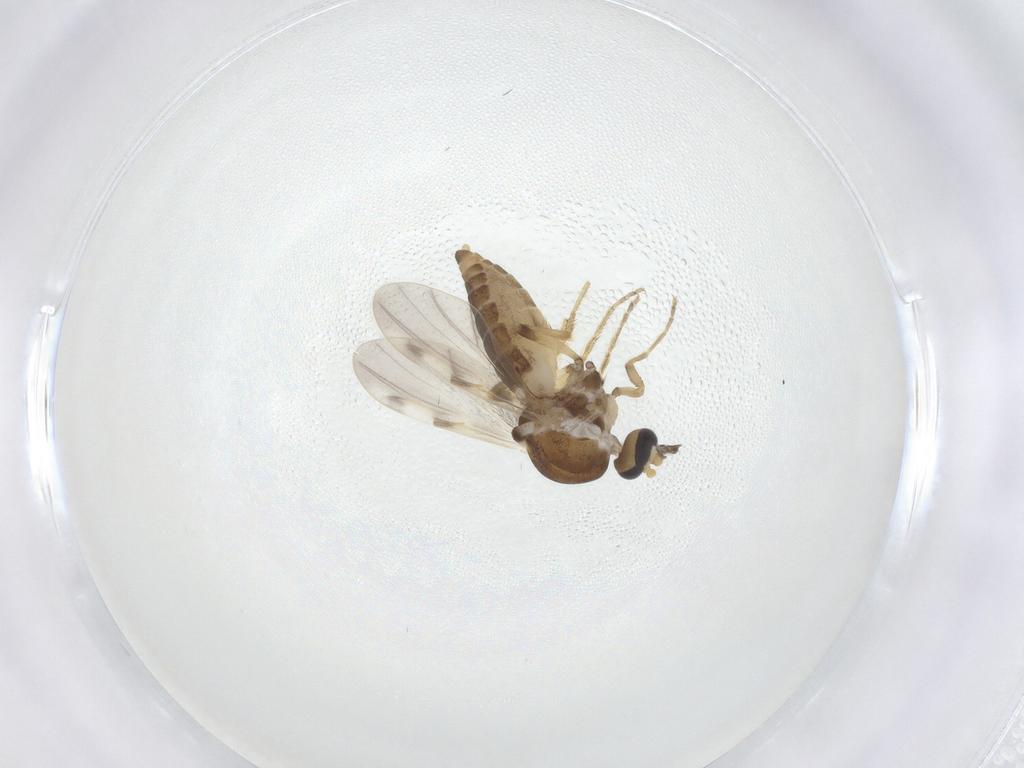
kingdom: Animalia
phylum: Arthropoda
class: Insecta
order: Diptera
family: Ceratopogonidae
